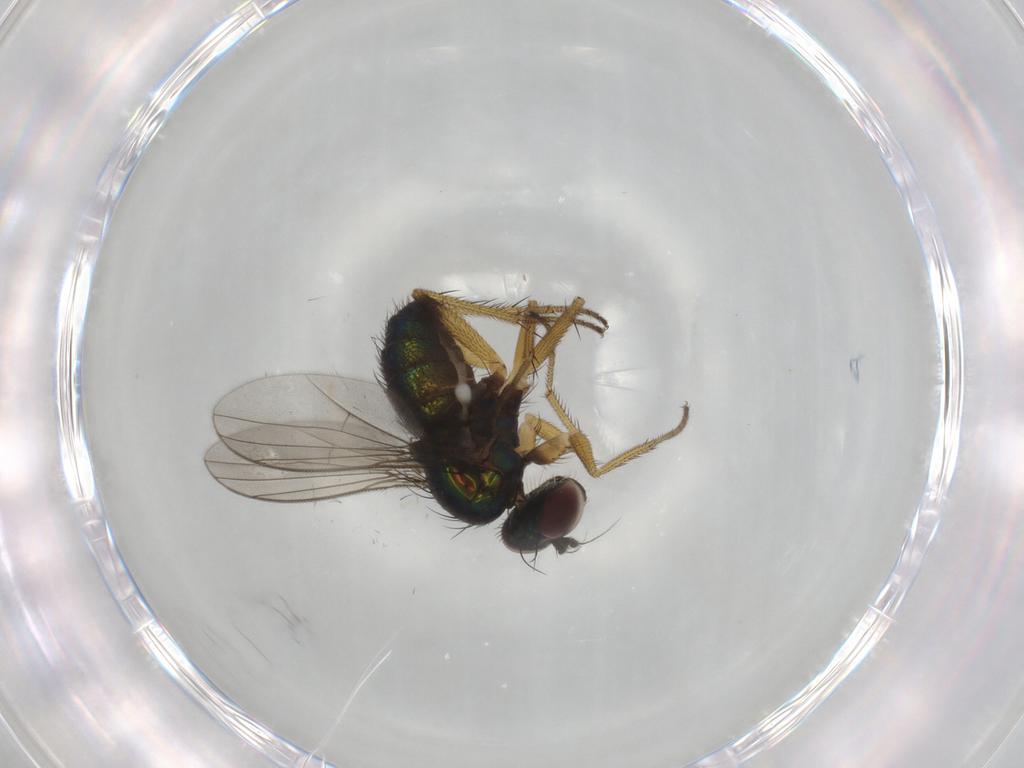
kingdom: Animalia
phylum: Arthropoda
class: Insecta
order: Diptera
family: Dolichopodidae
